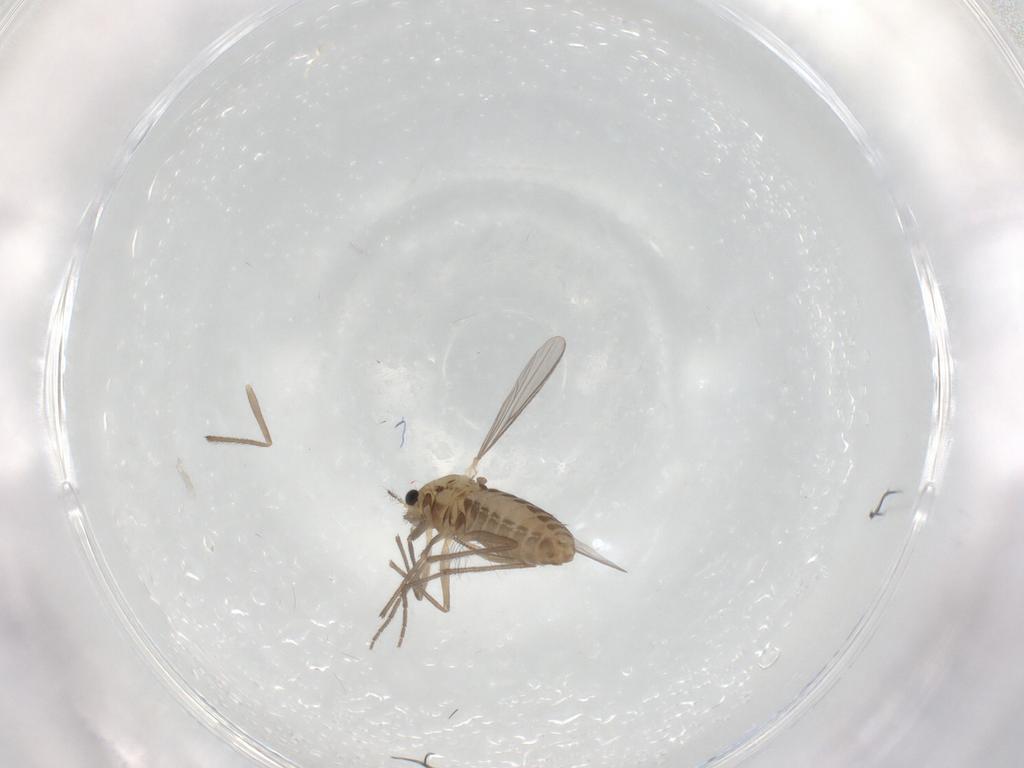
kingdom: Animalia
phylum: Arthropoda
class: Insecta
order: Diptera
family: Chironomidae
